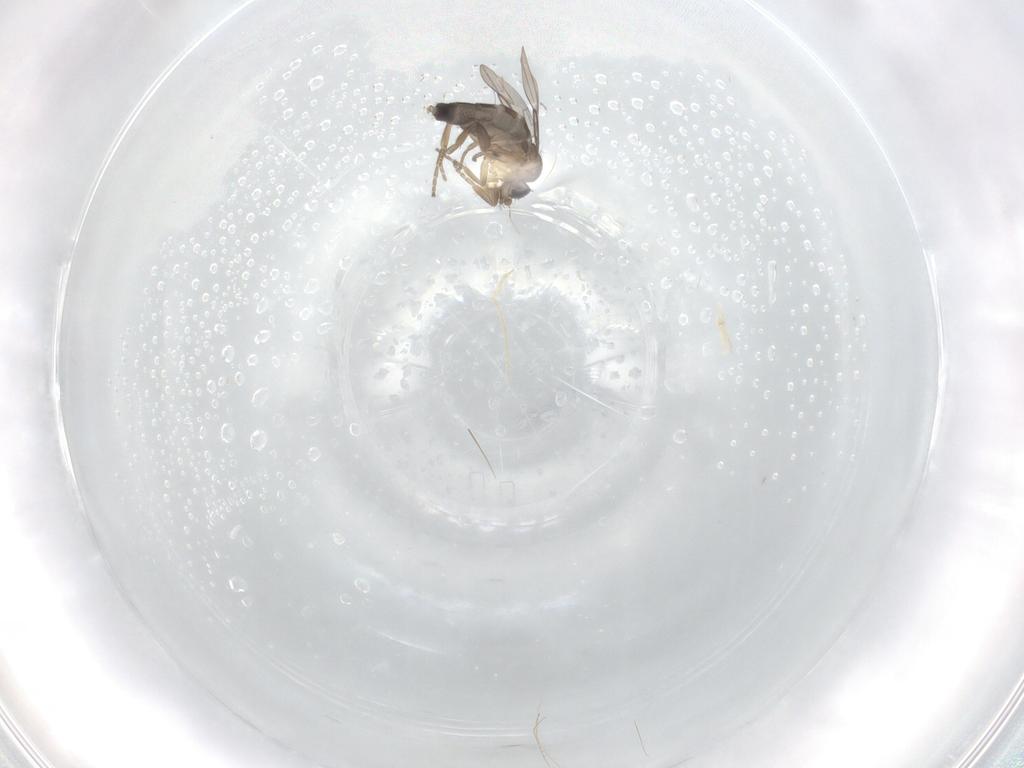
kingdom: Animalia
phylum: Arthropoda
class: Insecta
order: Diptera
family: Phoridae
